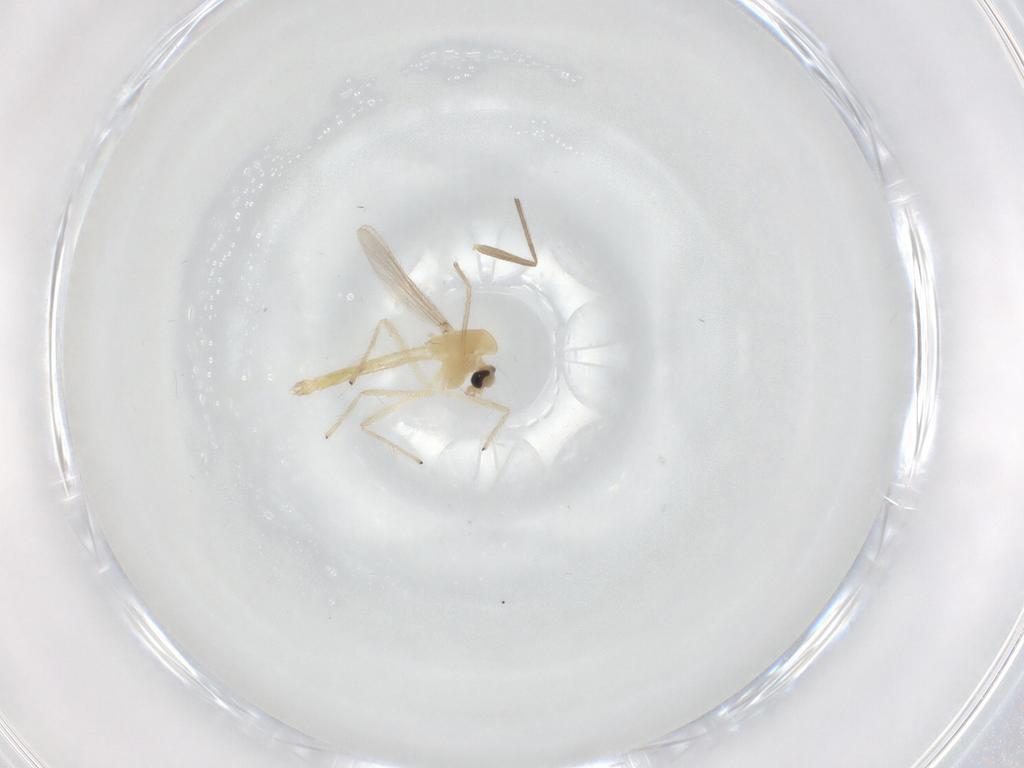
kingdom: Animalia
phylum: Arthropoda
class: Insecta
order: Diptera
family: Chironomidae
